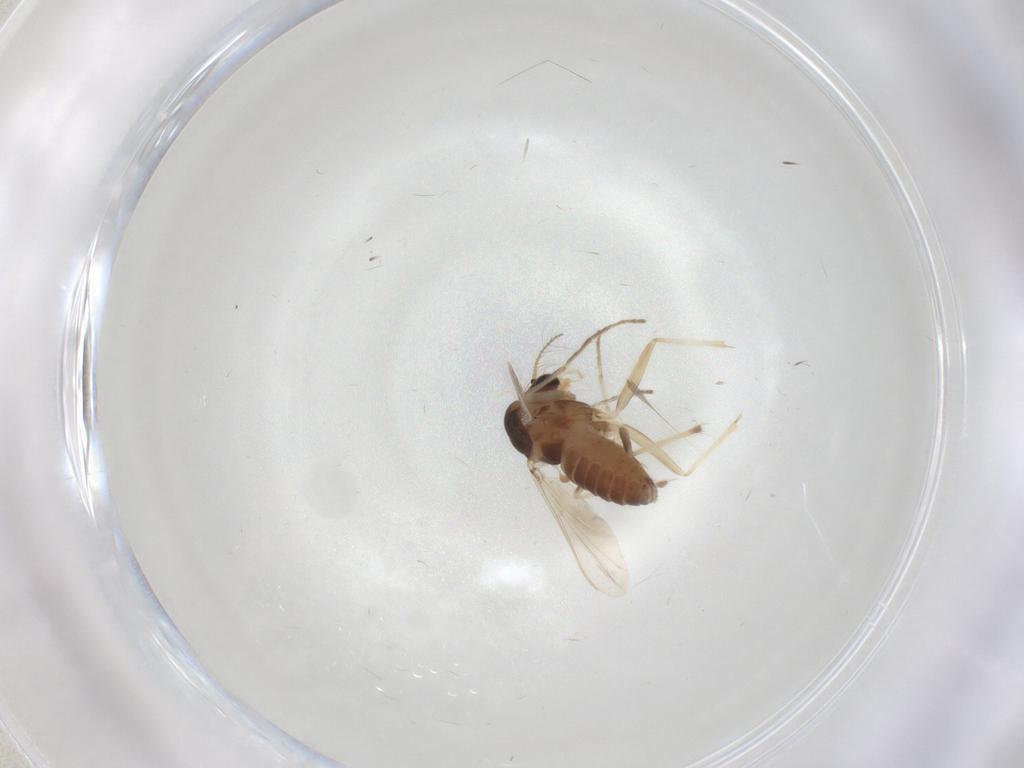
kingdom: Animalia
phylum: Arthropoda
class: Insecta
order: Diptera
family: Chironomidae
